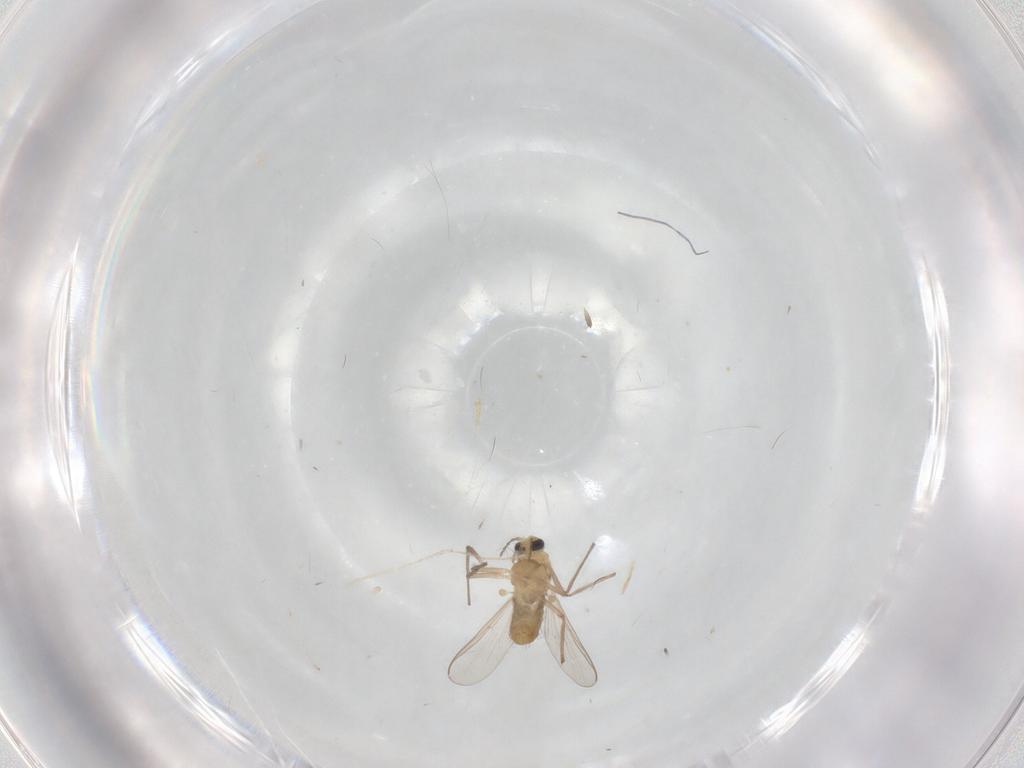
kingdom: Animalia
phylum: Arthropoda
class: Insecta
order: Diptera
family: Chironomidae
